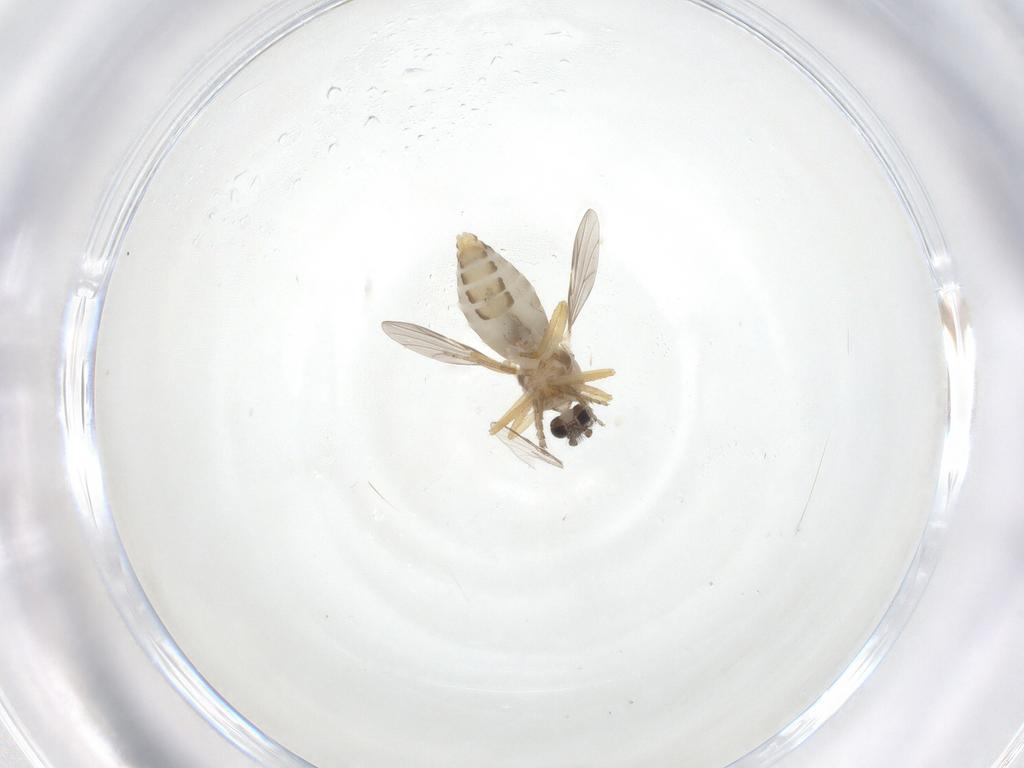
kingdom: Animalia
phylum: Arthropoda
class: Insecta
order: Diptera
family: Ceratopogonidae
